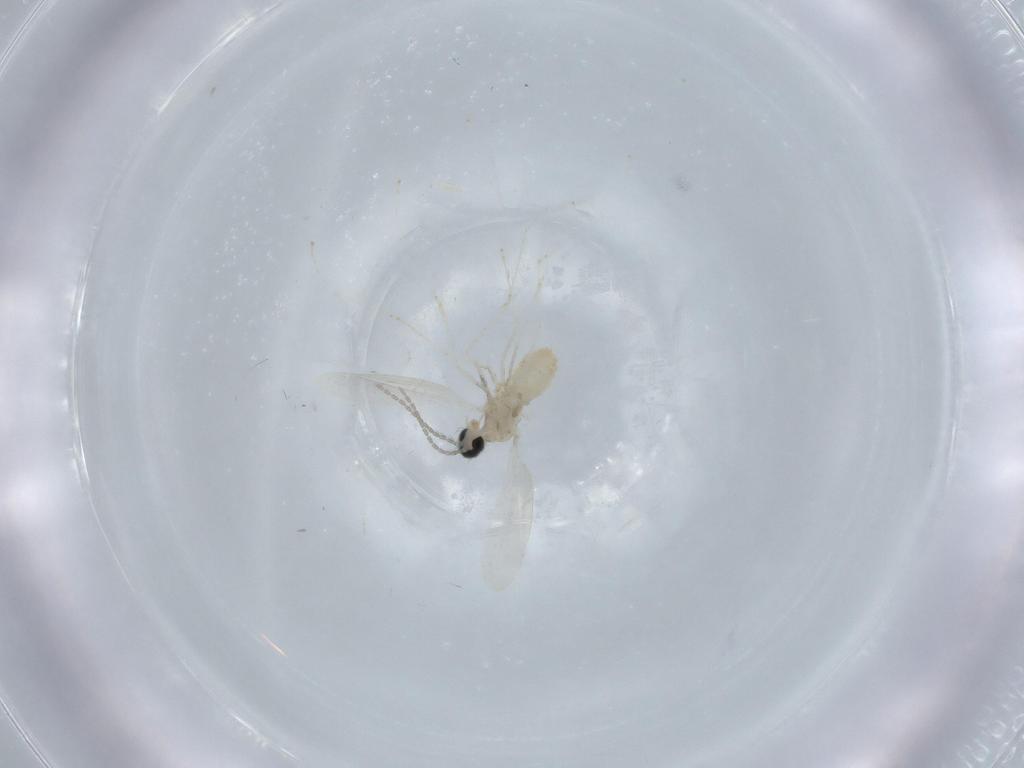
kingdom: Animalia
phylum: Arthropoda
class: Insecta
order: Diptera
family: Cecidomyiidae
